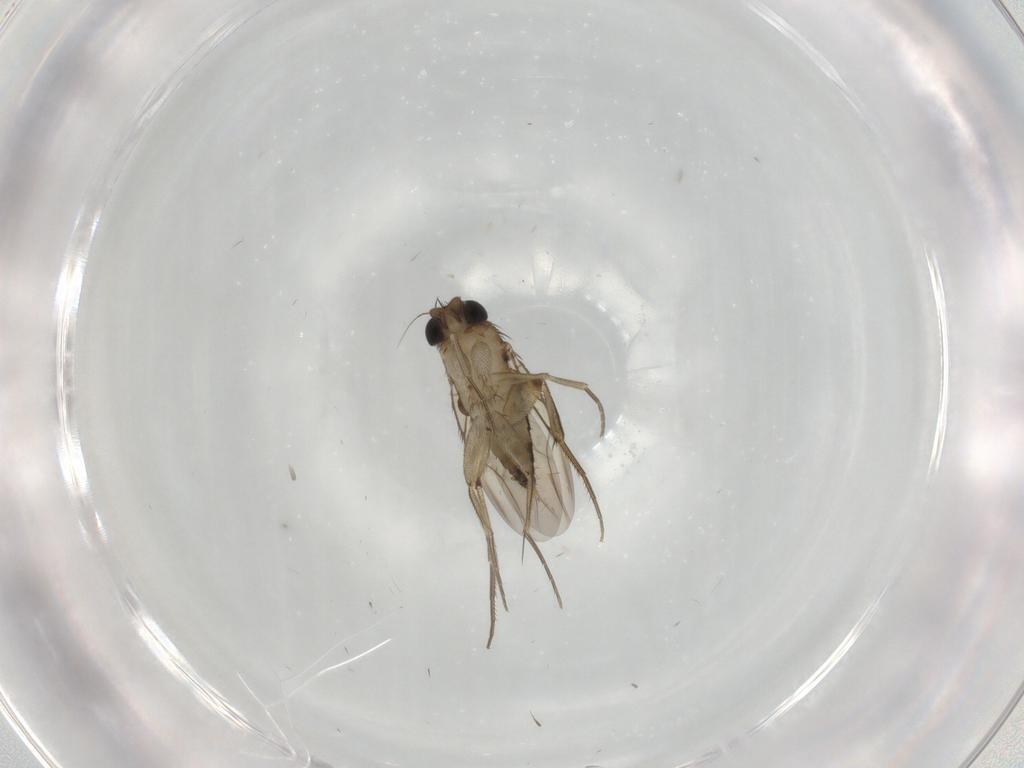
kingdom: Animalia
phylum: Arthropoda
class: Insecta
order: Diptera
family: Phoridae
